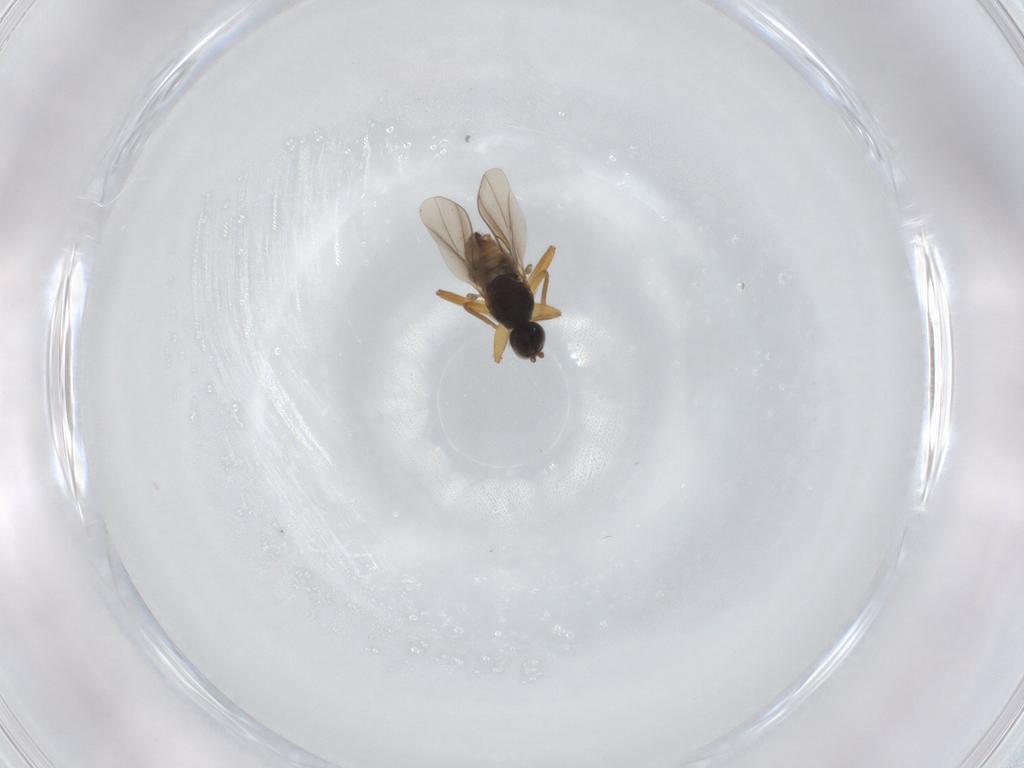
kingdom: Animalia
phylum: Arthropoda
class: Insecta
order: Diptera
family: Hybotidae
